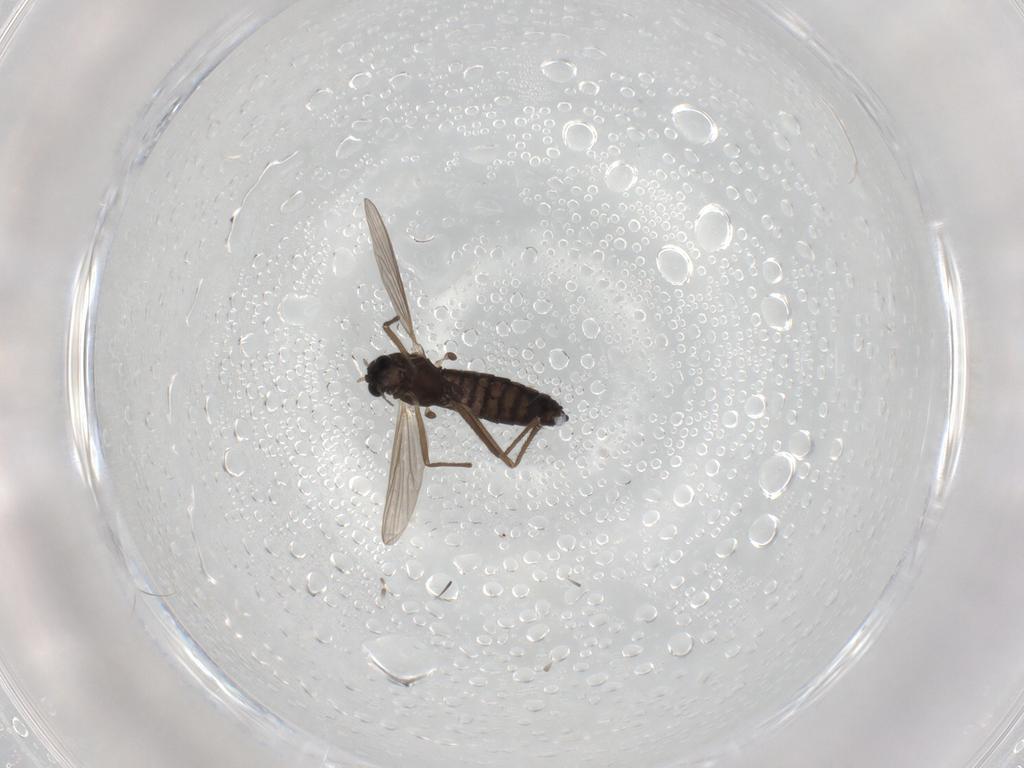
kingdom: Animalia
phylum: Arthropoda
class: Insecta
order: Diptera
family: Chironomidae
